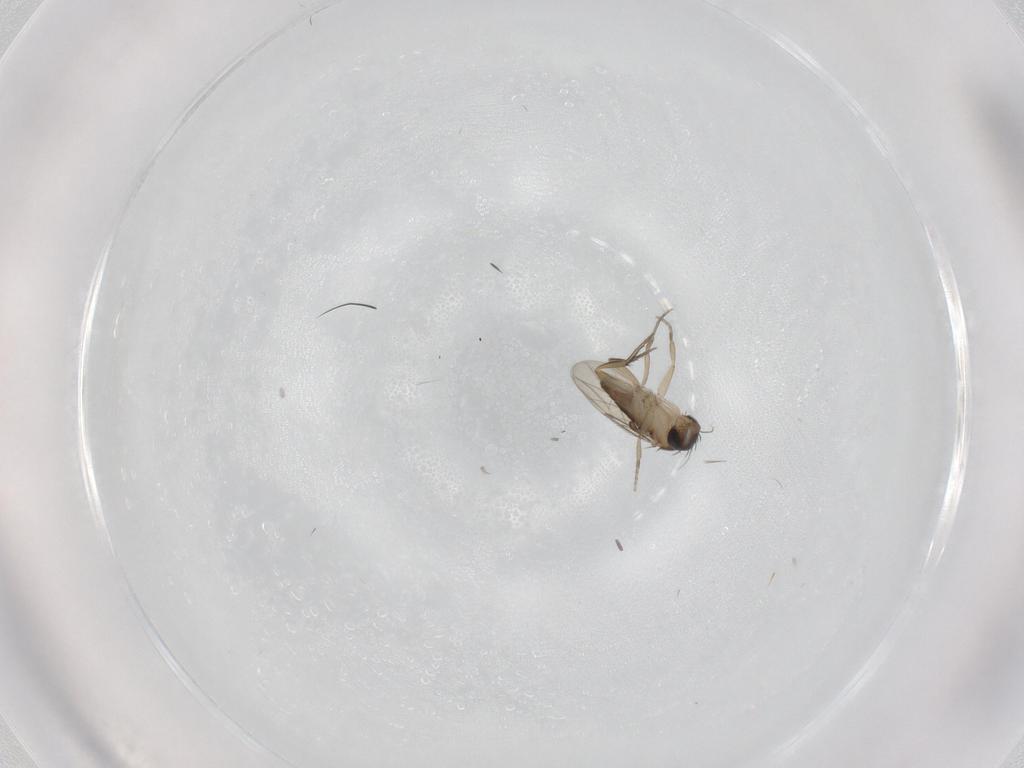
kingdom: Animalia
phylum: Arthropoda
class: Insecta
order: Diptera
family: Phoridae
